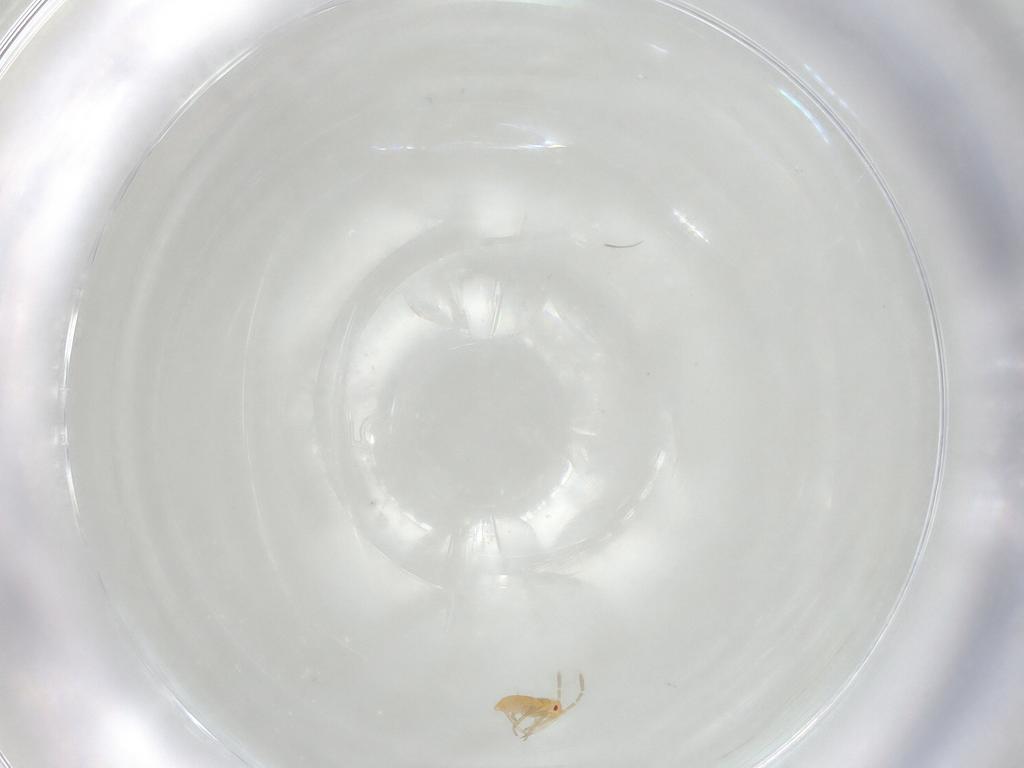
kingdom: Animalia
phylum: Arthropoda
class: Insecta
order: Hemiptera
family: Miridae
